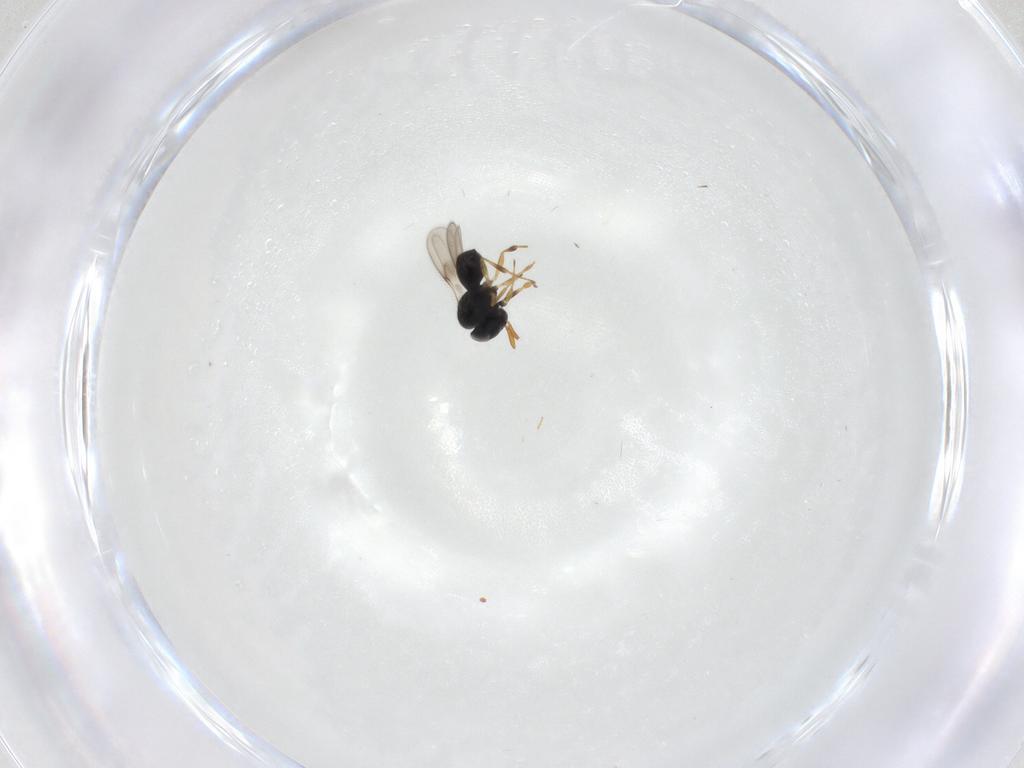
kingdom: Animalia
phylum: Arthropoda
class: Insecta
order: Hymenoptera
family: Scelionidae
